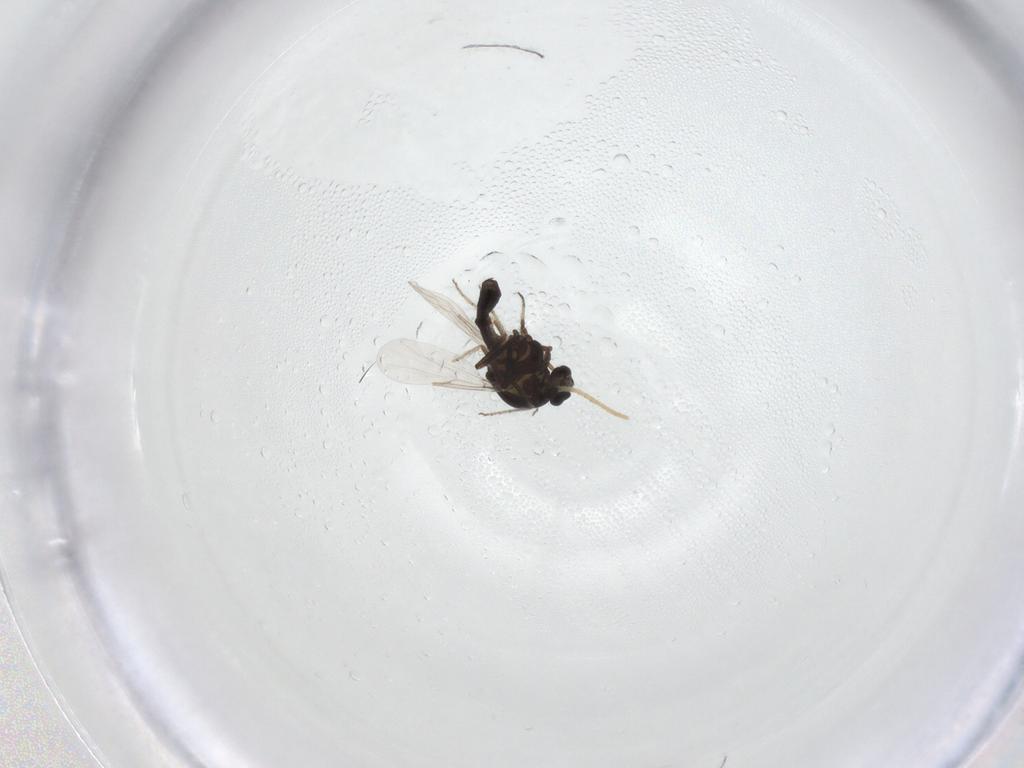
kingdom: Animalia
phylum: Arthropoda
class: Insecta
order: Diptera
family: Ceratopogonidae
